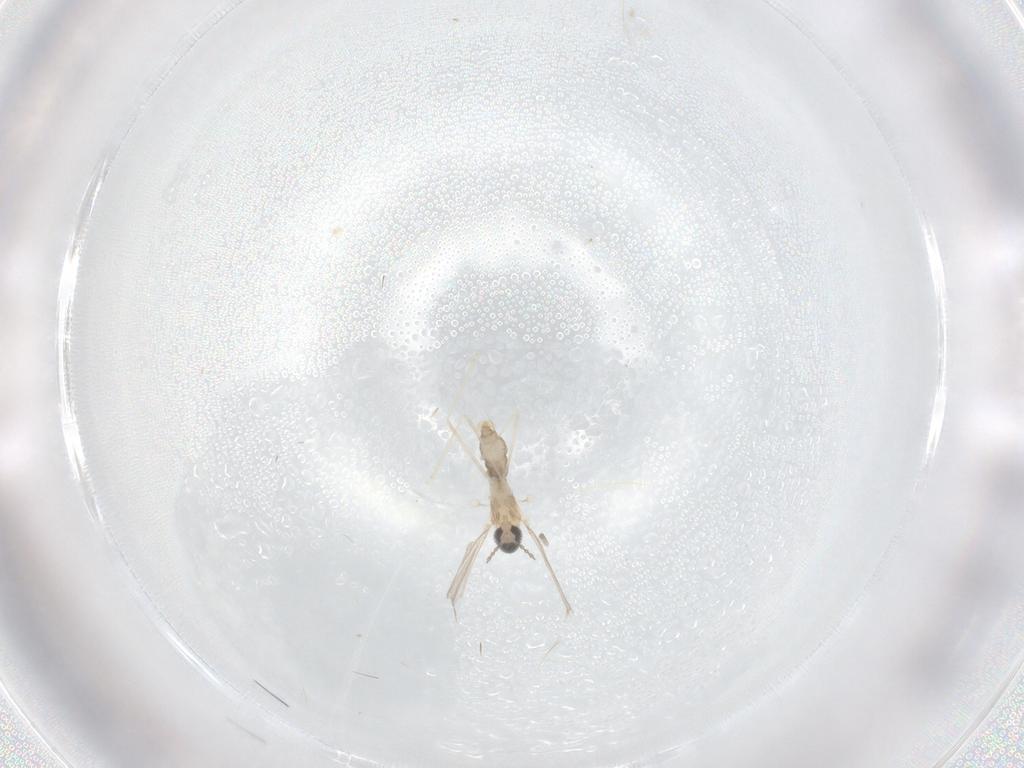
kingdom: Animalia
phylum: Arthropoda
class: Insecta
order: Diptera
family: Cecidomyiidae
